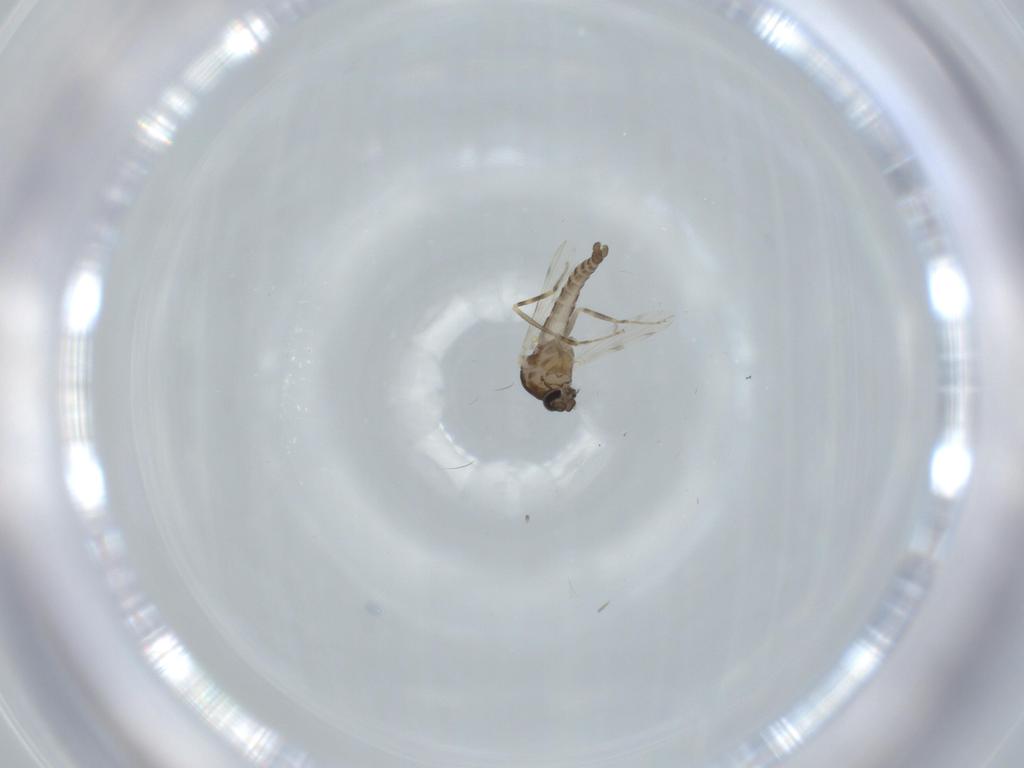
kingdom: Animalia
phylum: Arthropoda
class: Insecta
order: Diptera
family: Ceratopogonidae
